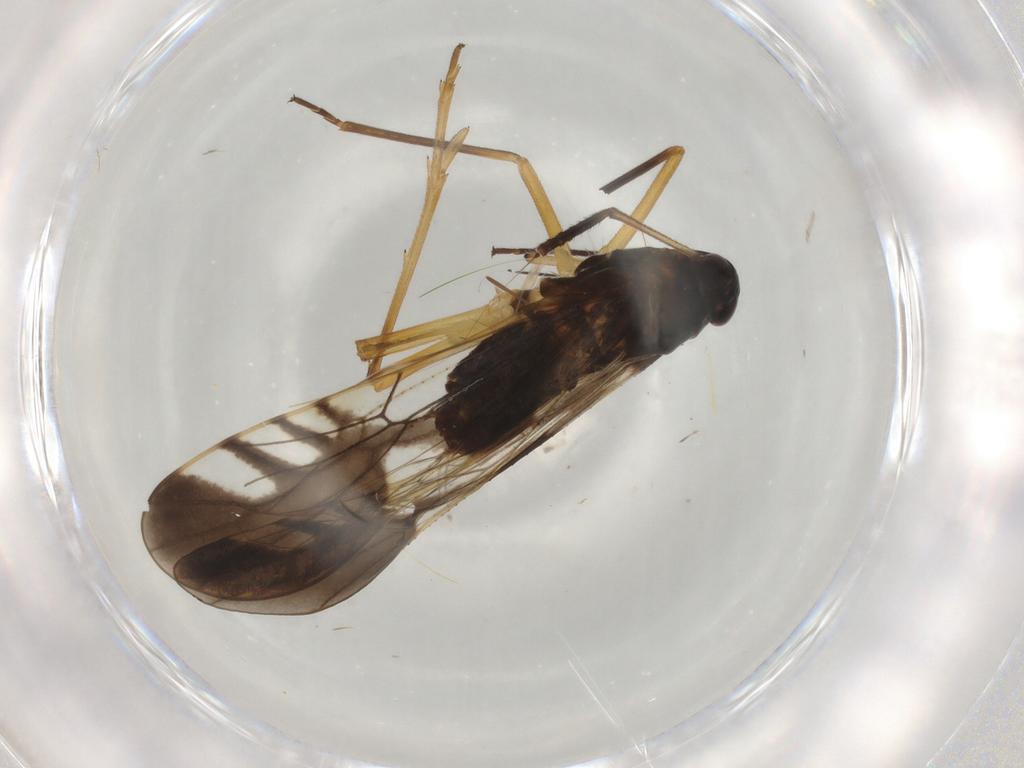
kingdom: Animalia
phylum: Arthropoda
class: Insecta
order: Hemiptera
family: Delphacidae
